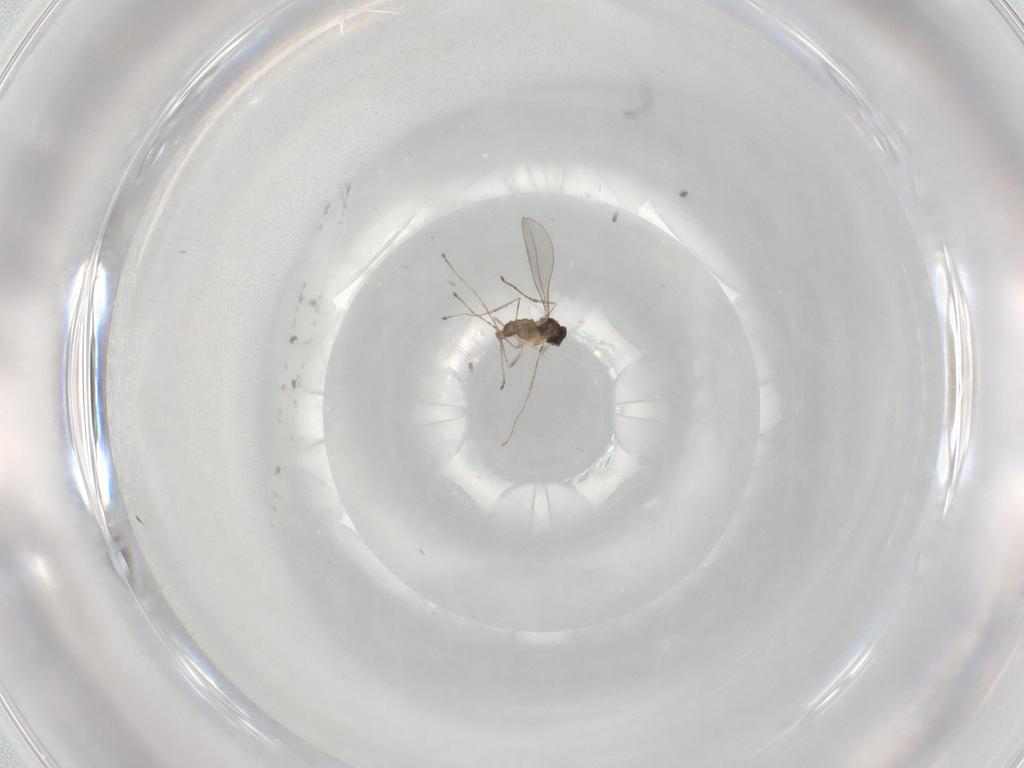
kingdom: Animalia
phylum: Arthropoda
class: Insecta
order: Diptera
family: Cecidomyiidae
